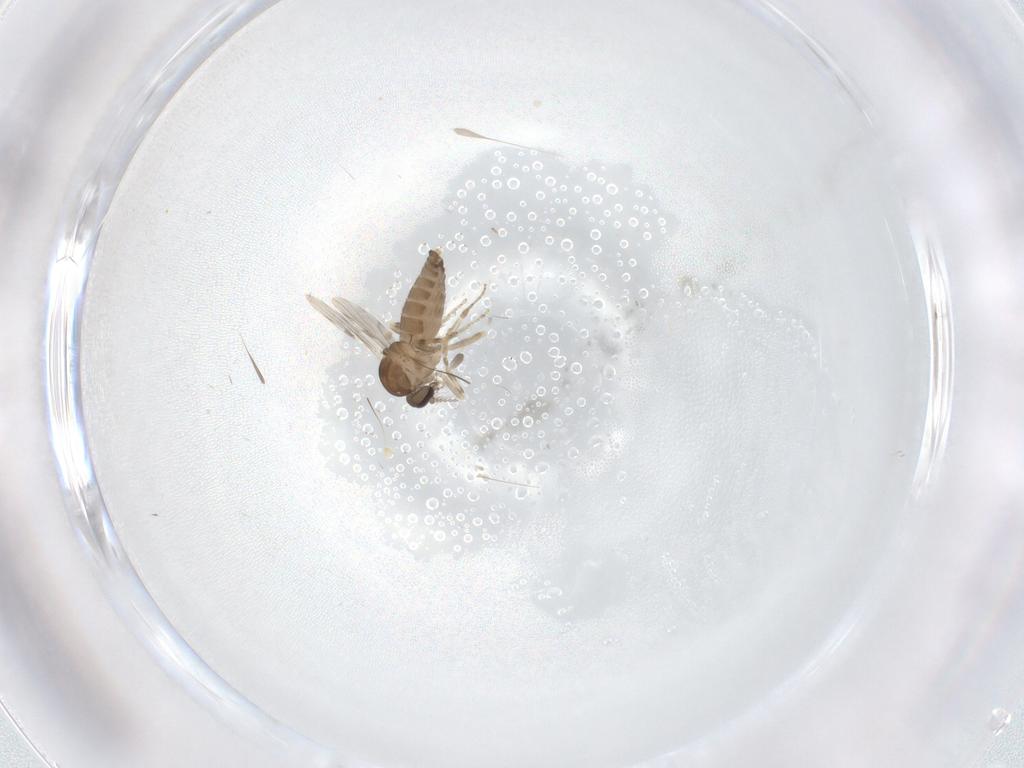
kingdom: Animalia
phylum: Arthropoda
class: Insecta
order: Diptera
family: Ceratopogonidae
